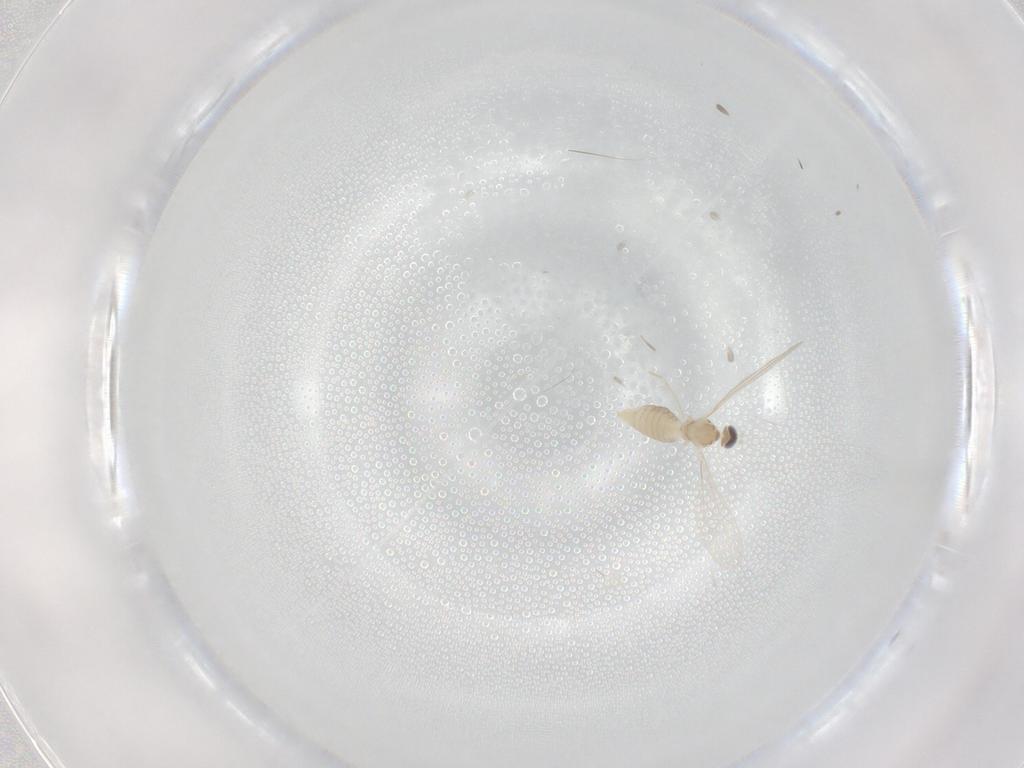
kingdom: Animalia
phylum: Arthropoda
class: Insecta
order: Diptera
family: Cecidomyiidae
